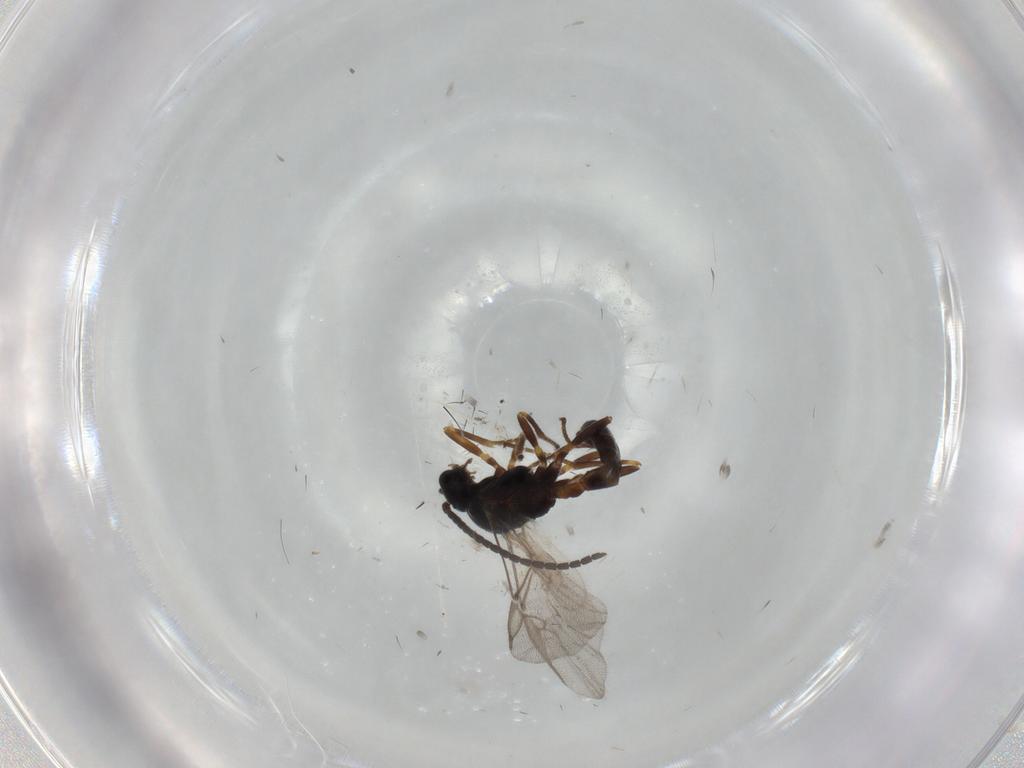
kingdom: Animalia
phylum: Arthropoda
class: Insecta
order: Hymenoptera
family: Braconidae
